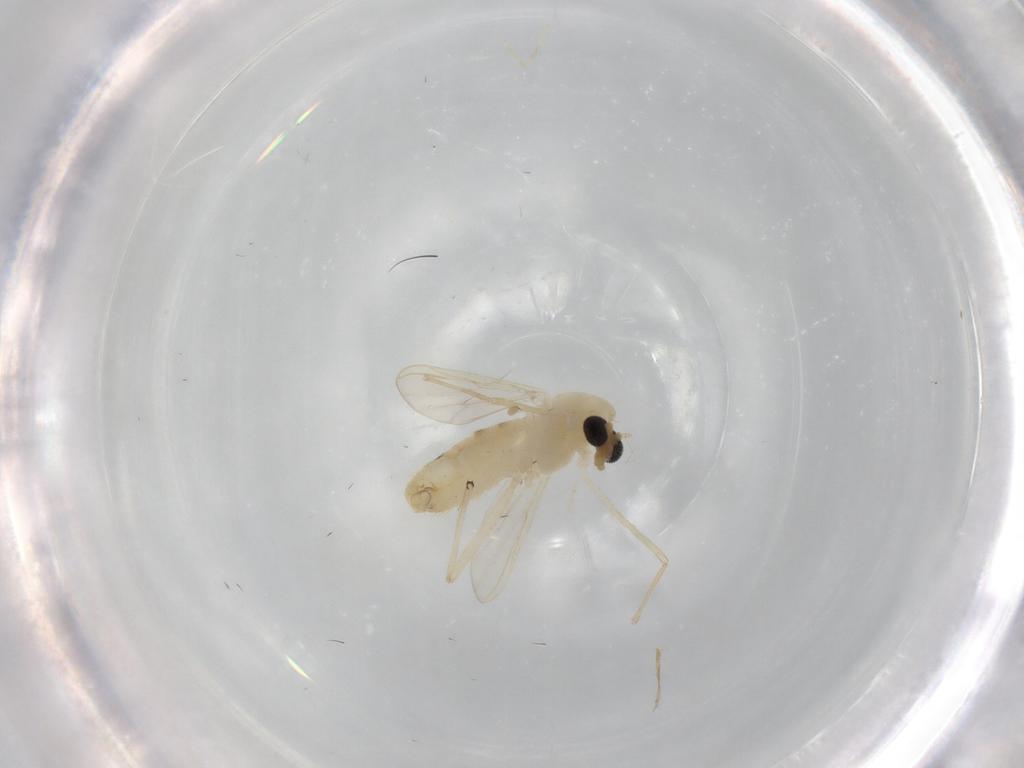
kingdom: Animalia
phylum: Arthropoda
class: Insecta
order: Diptera
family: Chironomidae
